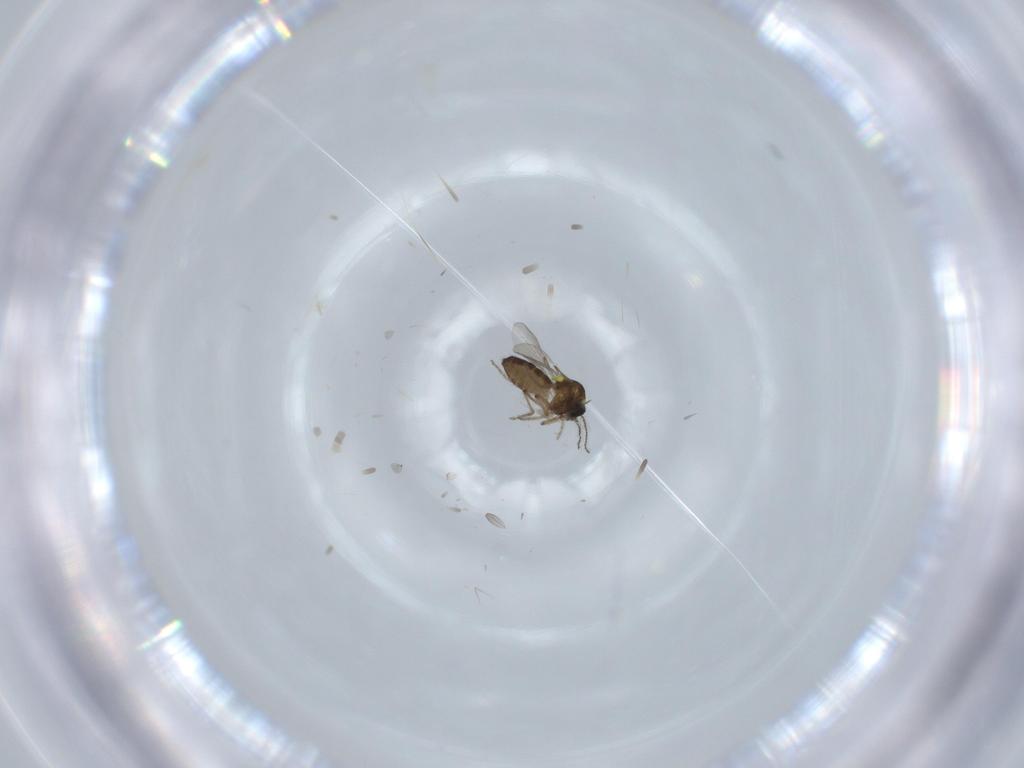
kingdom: Animalia
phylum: Arthropoda
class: Insecta
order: Diptera
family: Ceratopogonidae
